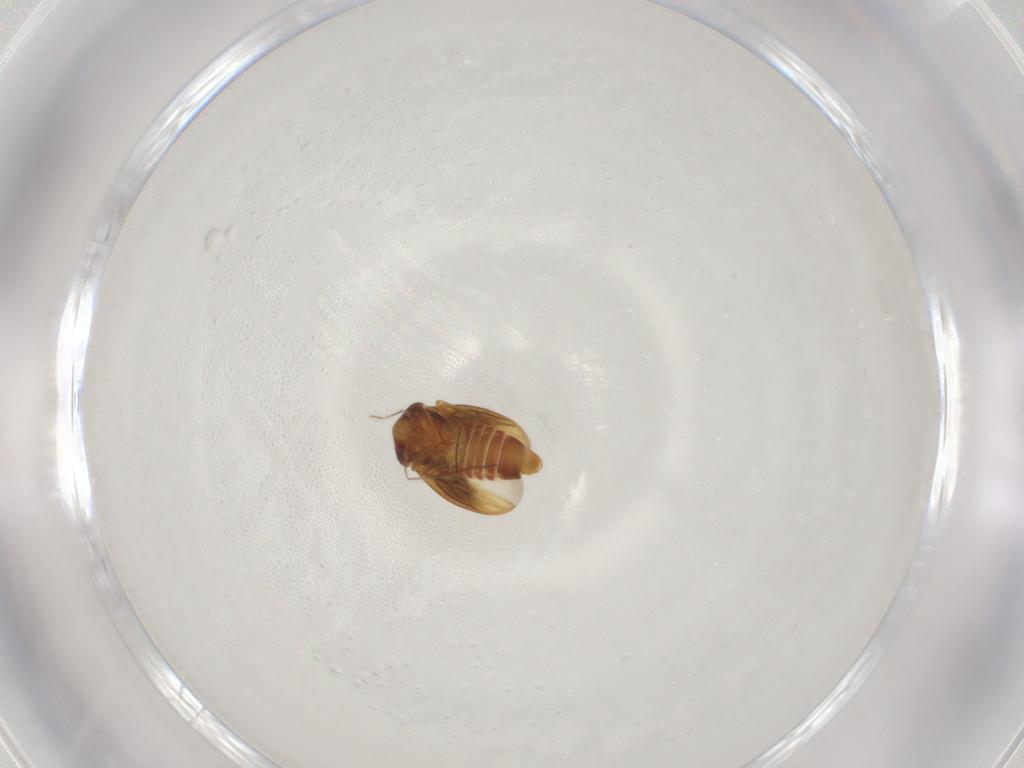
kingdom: Animalia
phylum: Arthropoda
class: Insecta
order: Hemiptera
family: Psylloidea_incertae_sedis
